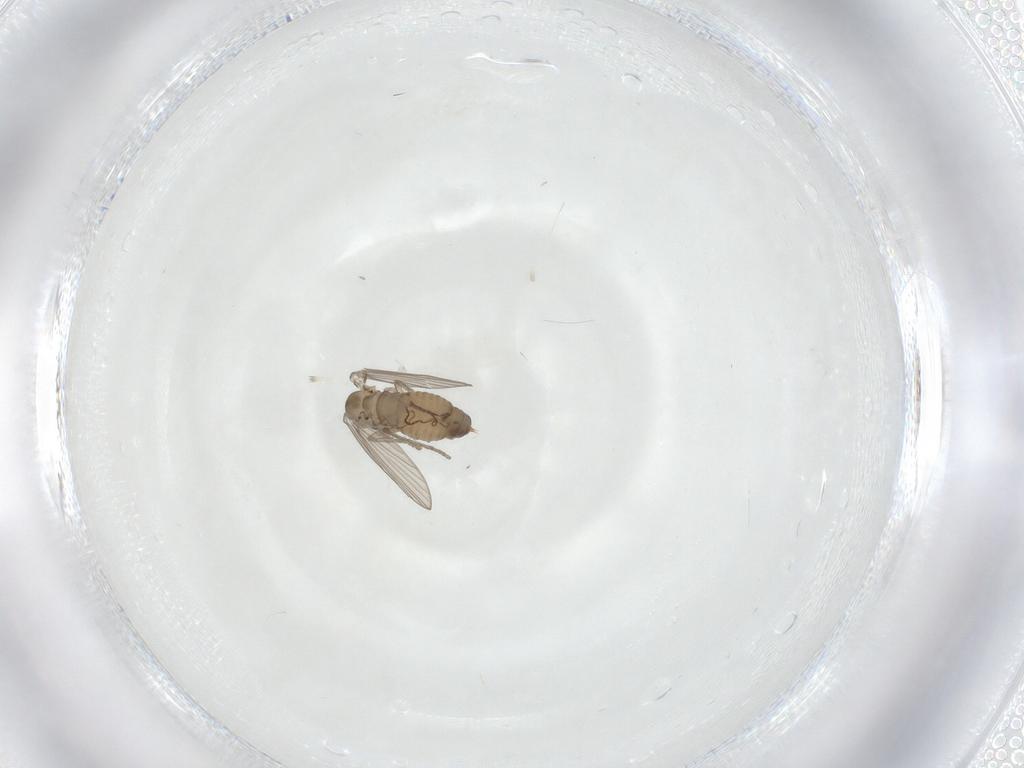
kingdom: Animalia
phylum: Arthropoda
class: Insecta
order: Diptera
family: Psychodidae
